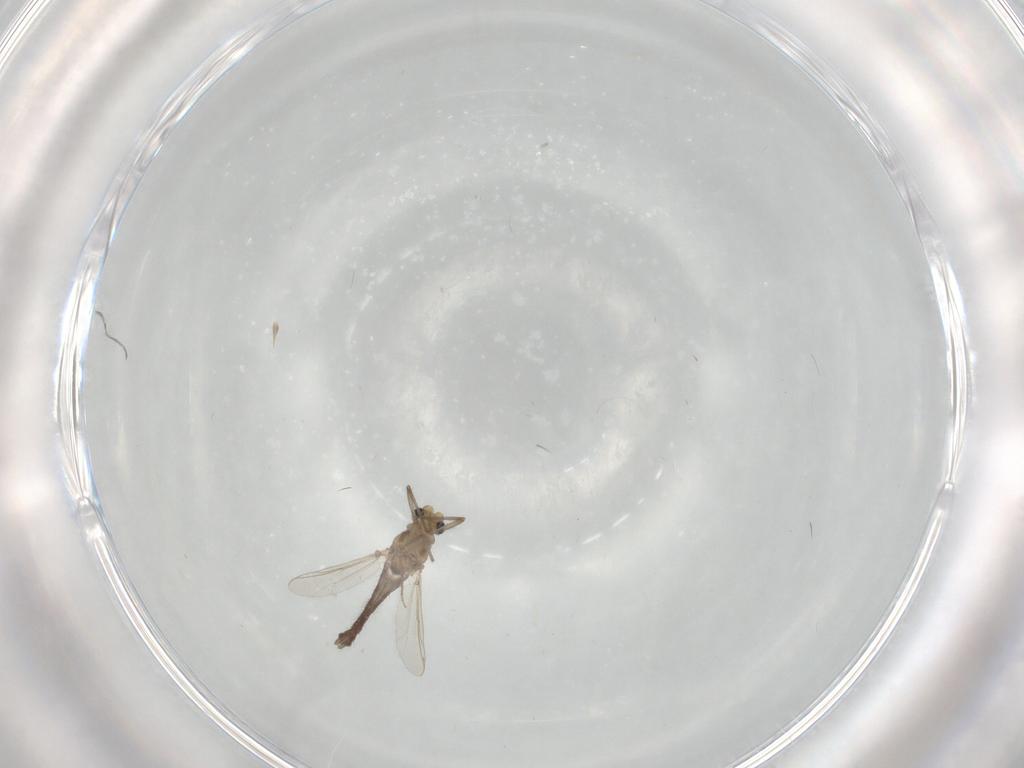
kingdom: Animalia
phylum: Arthropoda
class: Insecta
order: Diptera
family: Chironomidae
